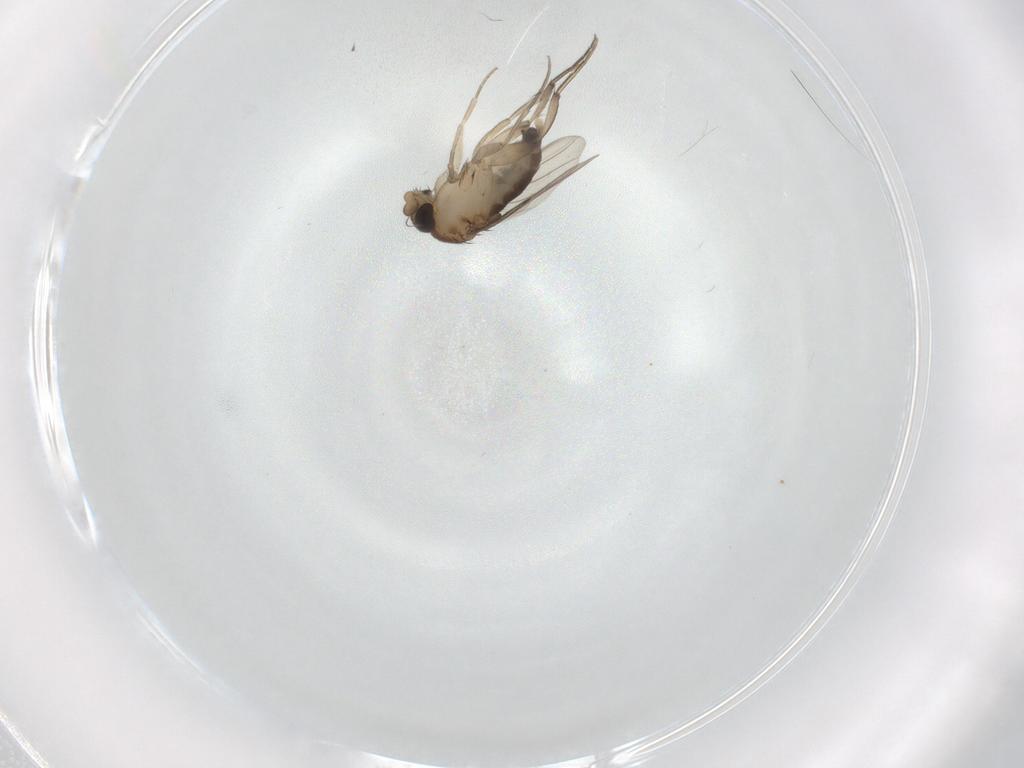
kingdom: Animalia
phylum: Arthropoda
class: Insecta
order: Diptera
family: Phoridae
